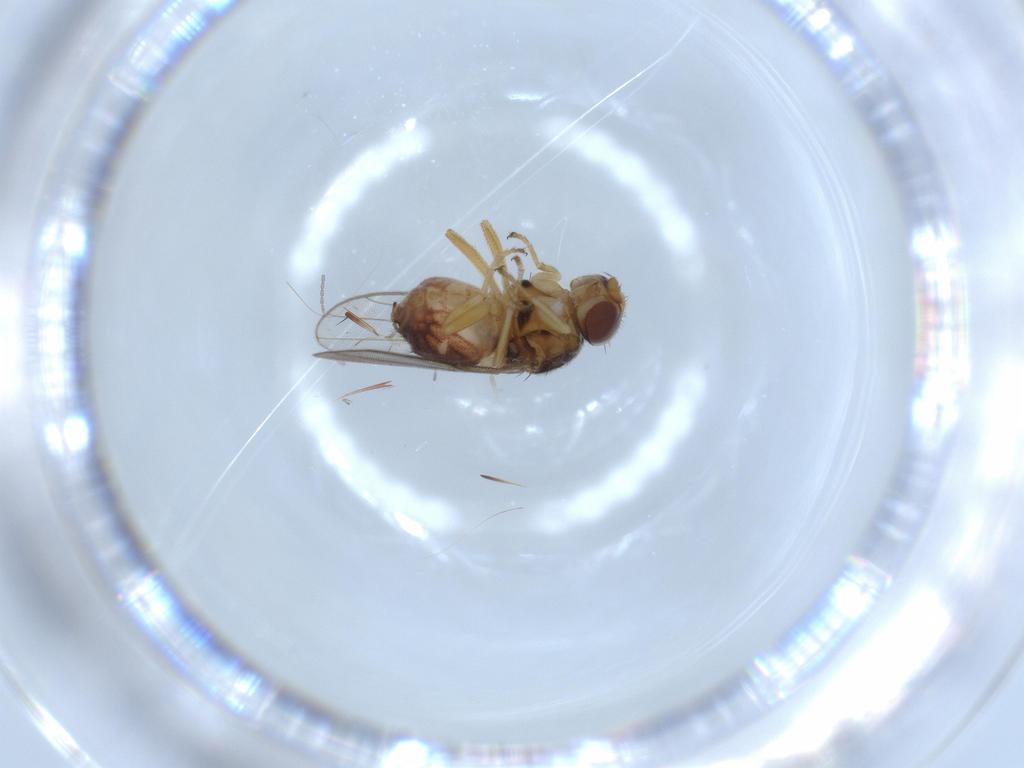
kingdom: Animalia
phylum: Arthropoda
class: Insecta
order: Diptera
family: Chloropidae
